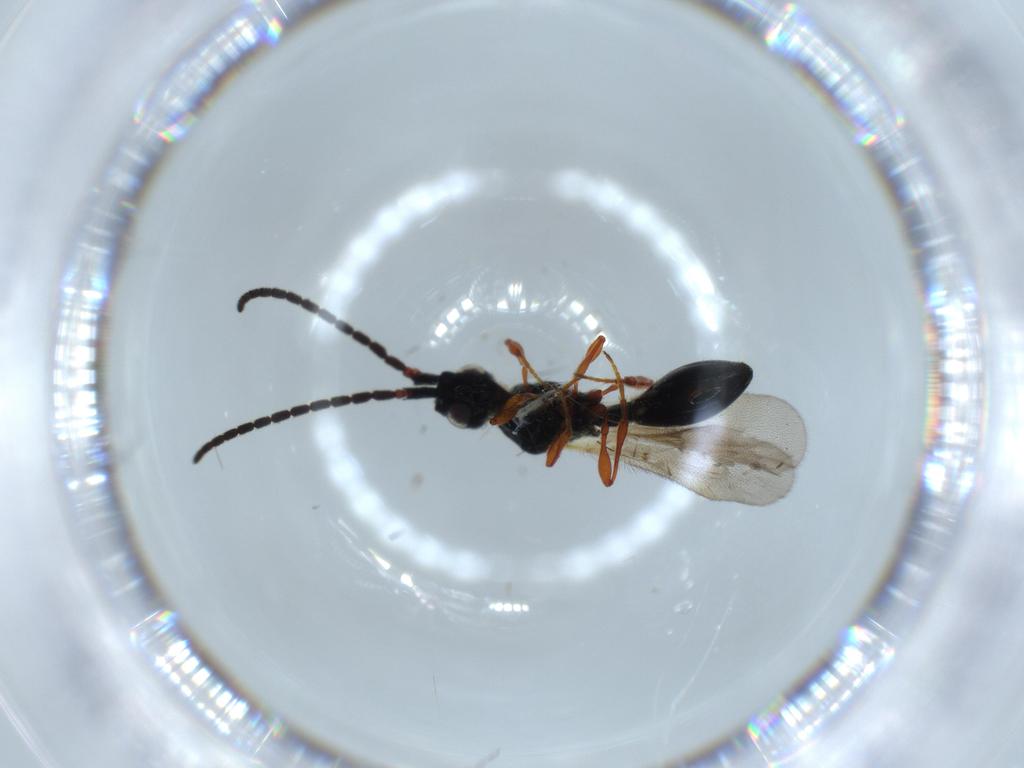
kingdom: Animalia
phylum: Arthropoda
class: Insecta
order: Hymenoptera
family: Diapriidae
